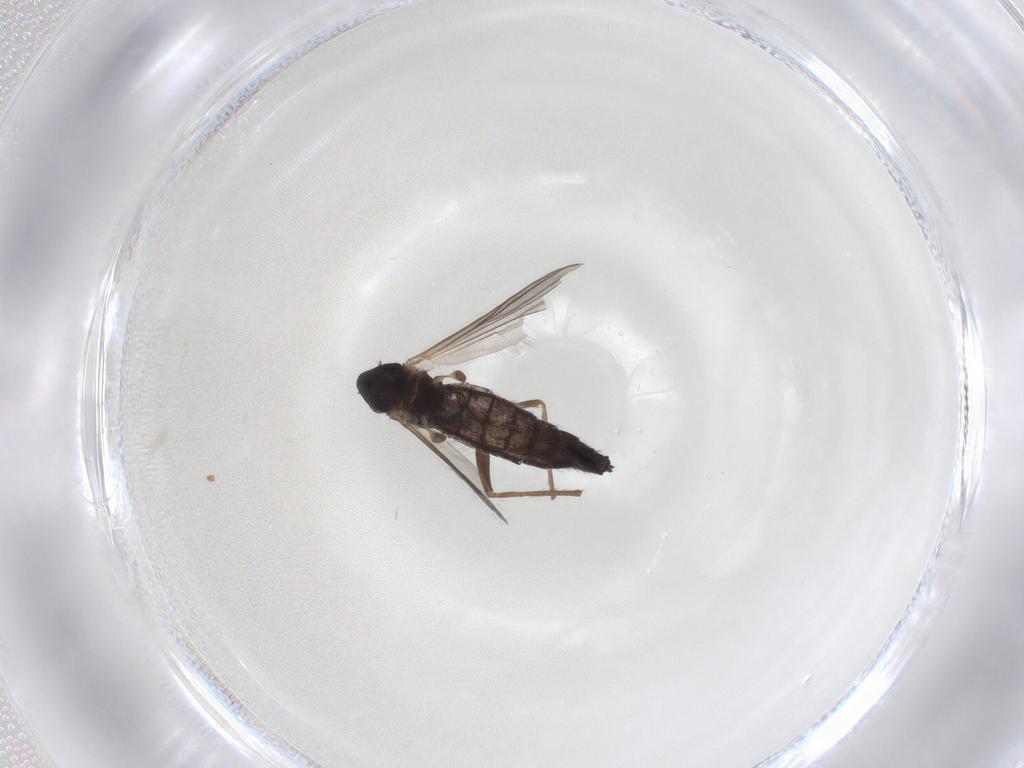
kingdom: Animalia
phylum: Arthropoda
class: Insecta
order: Diptera
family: Chironomidae
